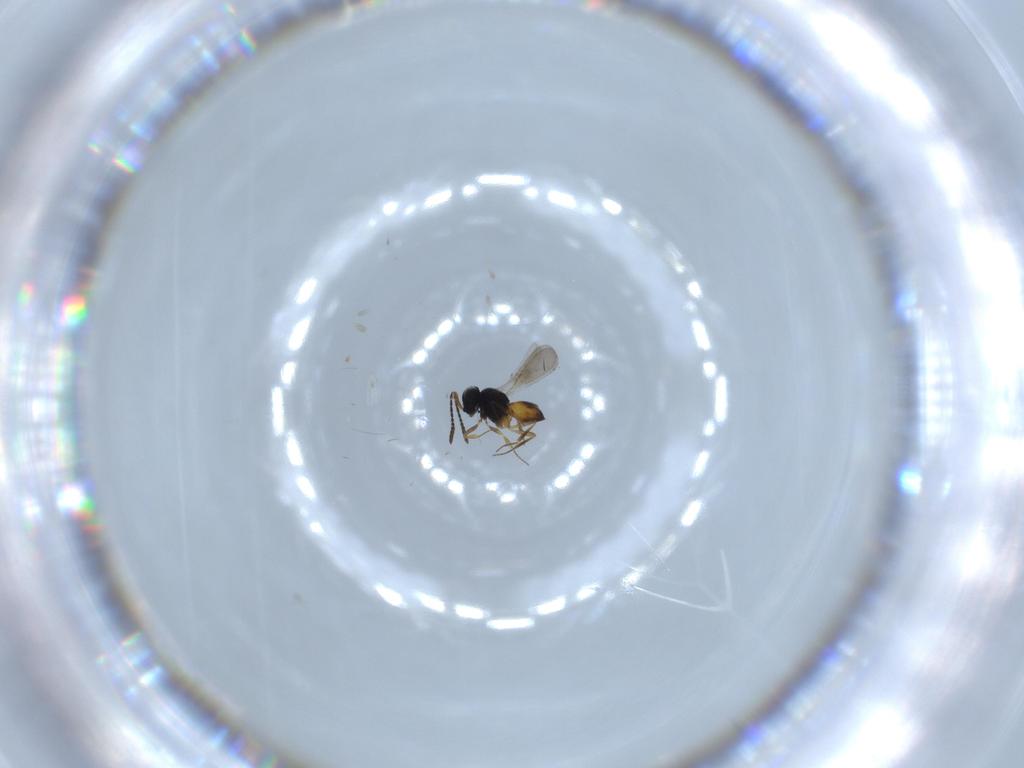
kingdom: Animalia
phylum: Arthropoda
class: Insecta
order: Hymenoptera
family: Scelionidae
